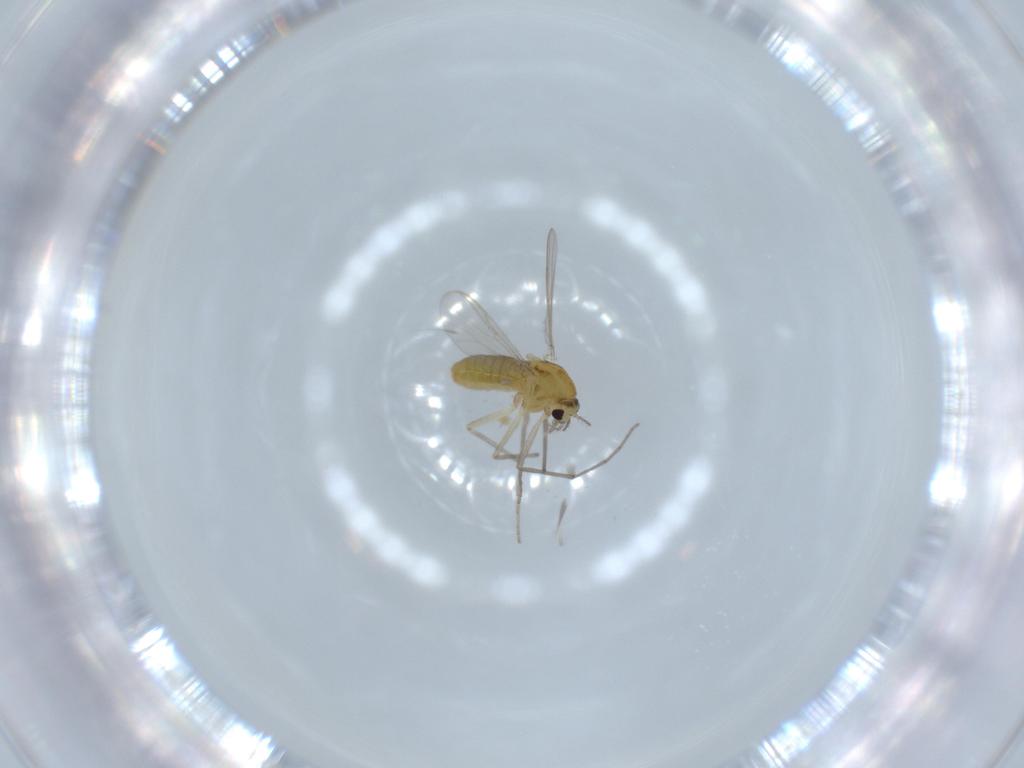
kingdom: Animalia
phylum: Arthropoda
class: Insecta
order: Diptera
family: Chironomidae
